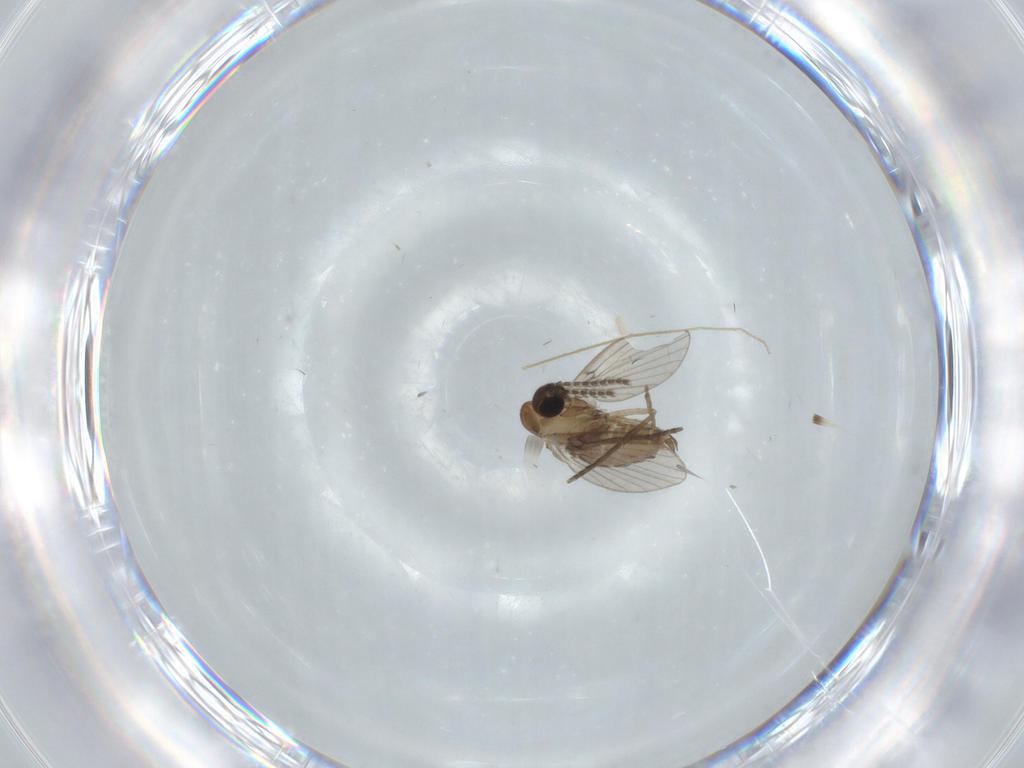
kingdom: Animalia
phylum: Arthropoda
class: Insecta
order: Diptera
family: Chironomidae
